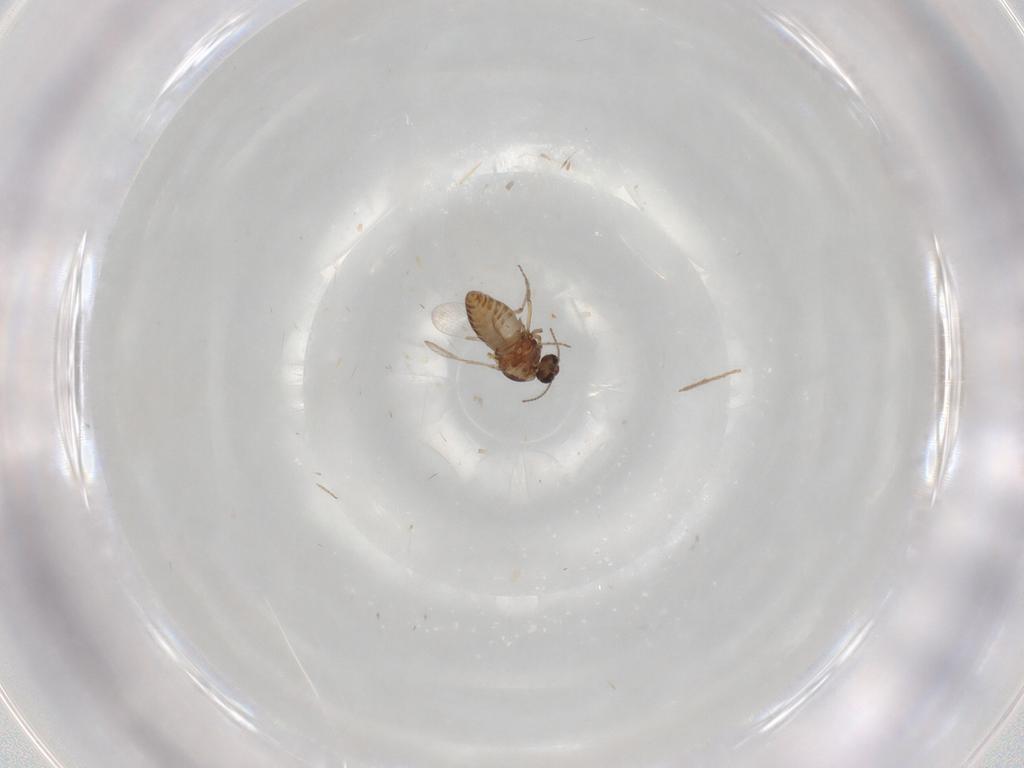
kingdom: Animalia
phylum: Arthropoda
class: Insecta
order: Diptera
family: Ceratopogonidae
